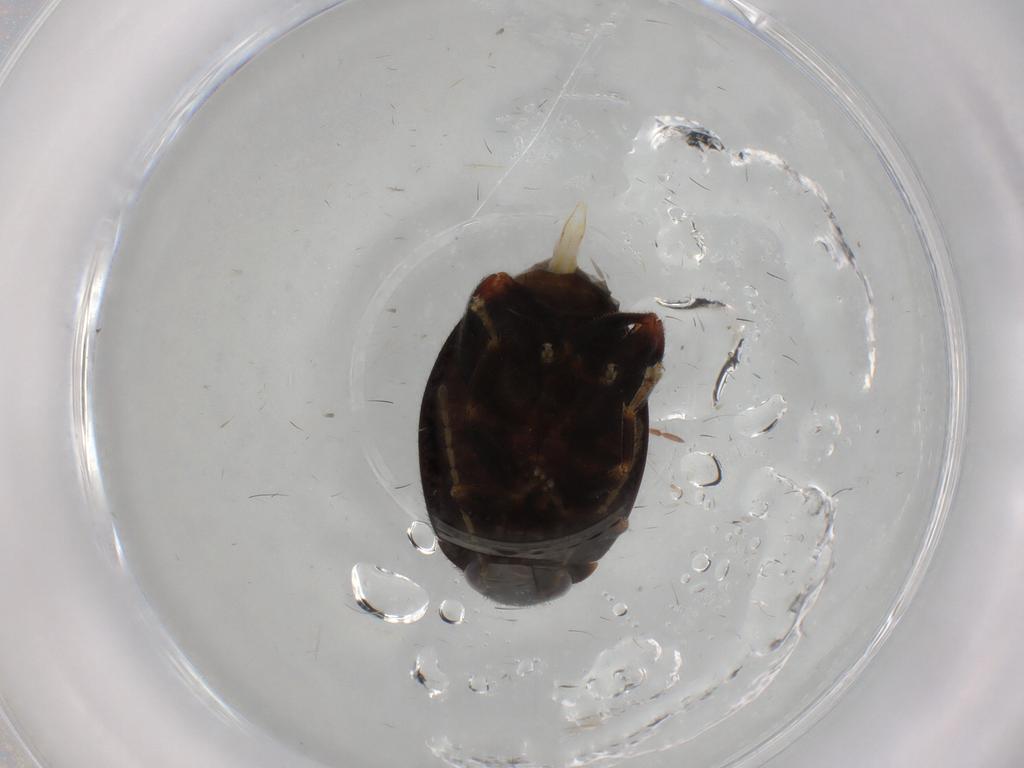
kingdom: Animalia
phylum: Arthropoda
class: Insecta
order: Coleoptera
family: Scirtidae
